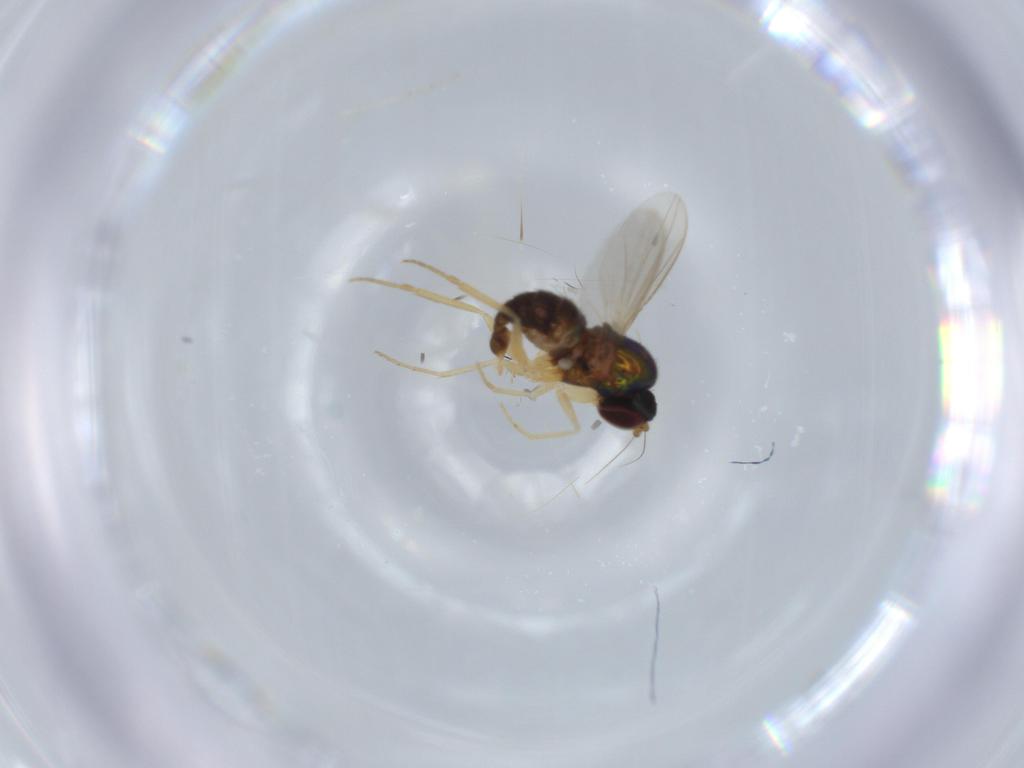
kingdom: Animalia
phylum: Arthropoda
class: Insecta
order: Diptera
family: Dolichopodidae
